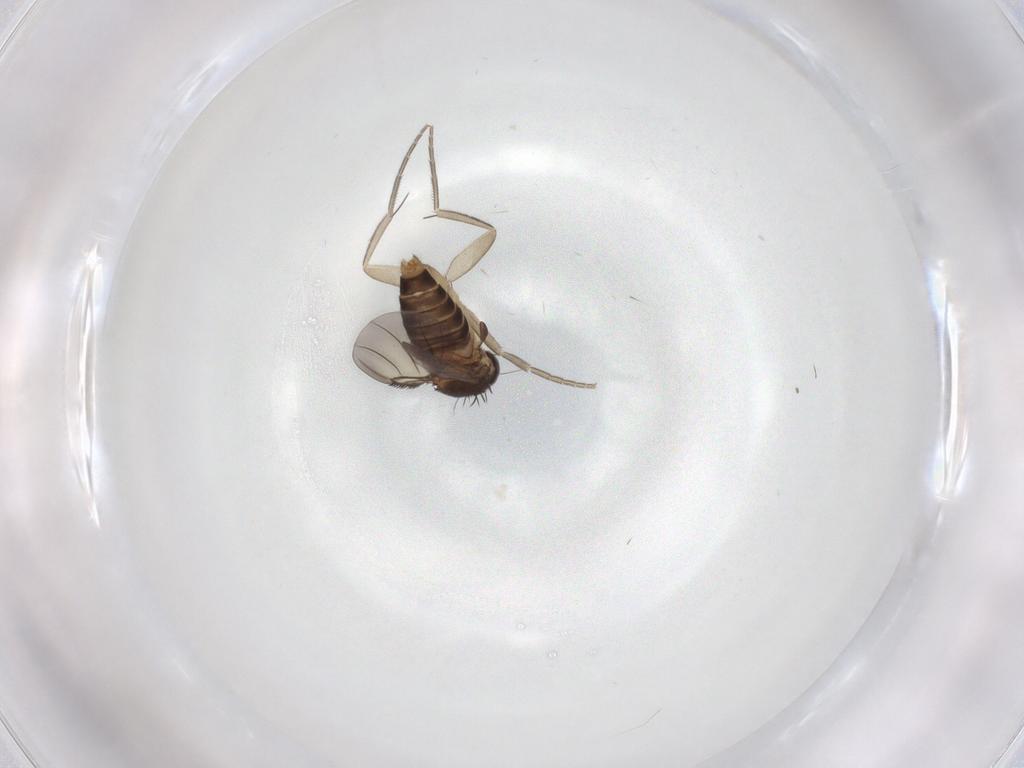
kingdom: Animalia
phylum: Arthropoda
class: Insecta
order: Diptera
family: Phoridae
